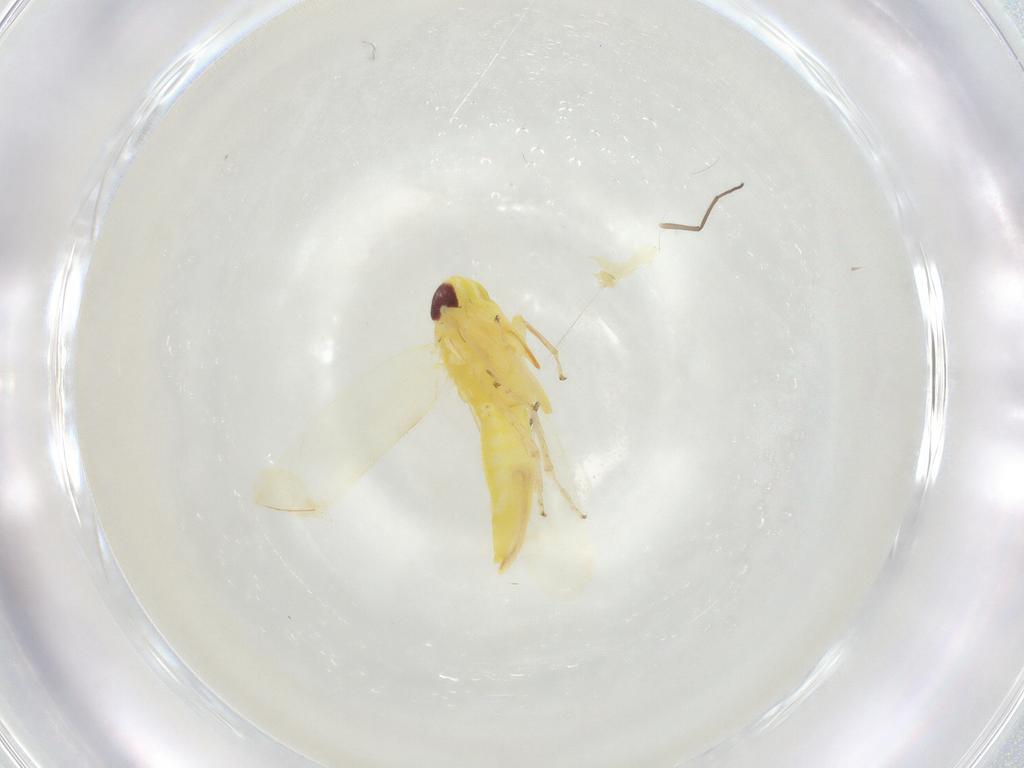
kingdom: Animalia
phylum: Arthropoda
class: Insecta
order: Hemiptera
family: Cicadellidae
